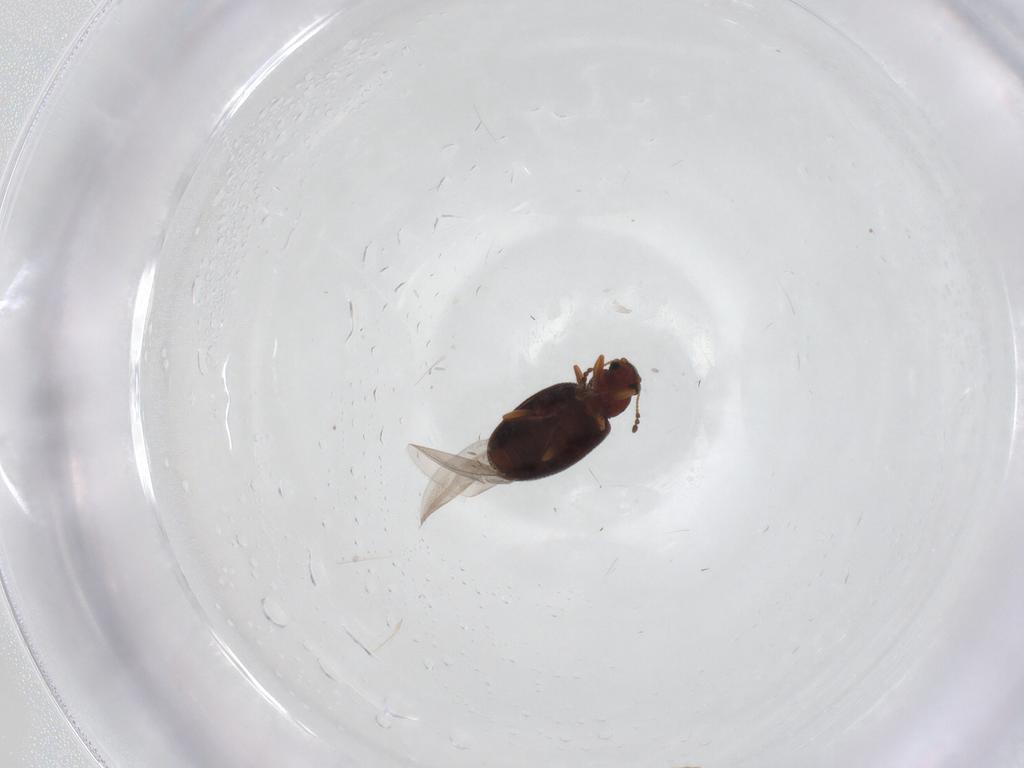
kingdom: Animalia
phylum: Arthropoda
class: Insecta
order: Coleoptera
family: Latridiidae
